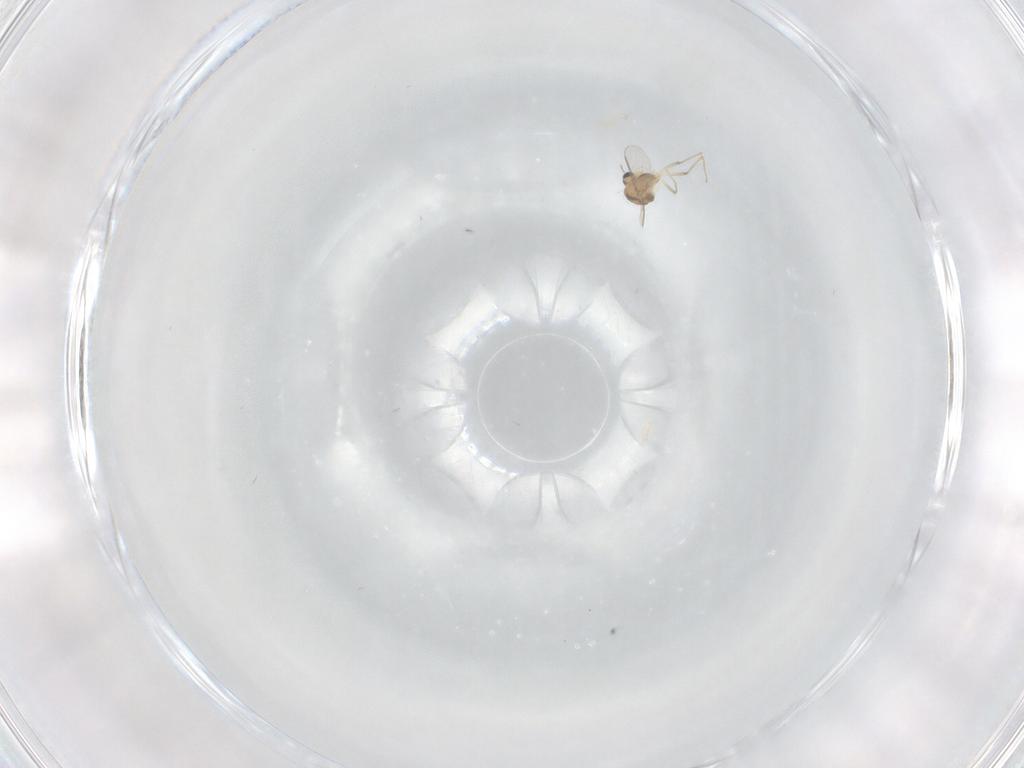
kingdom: Animalia
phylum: Arthropoda
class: Insecta
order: Diptera
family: Chironomidae
